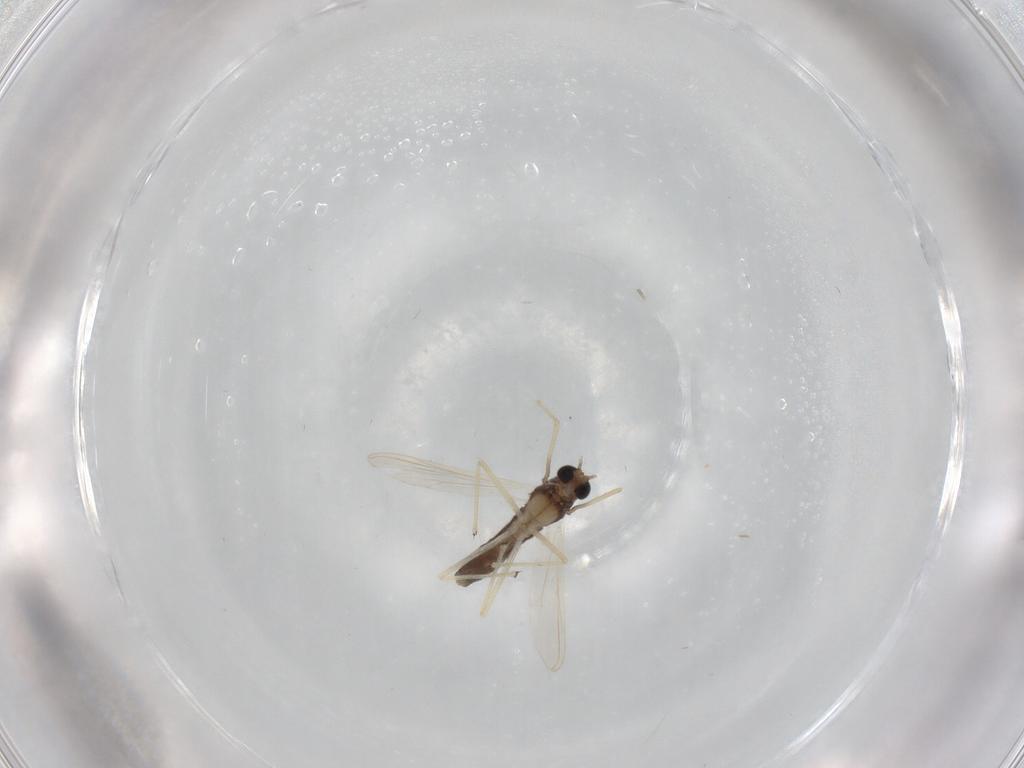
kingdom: Animalia
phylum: Arthropoda
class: Insecta
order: Diptera
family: Chironomidae
